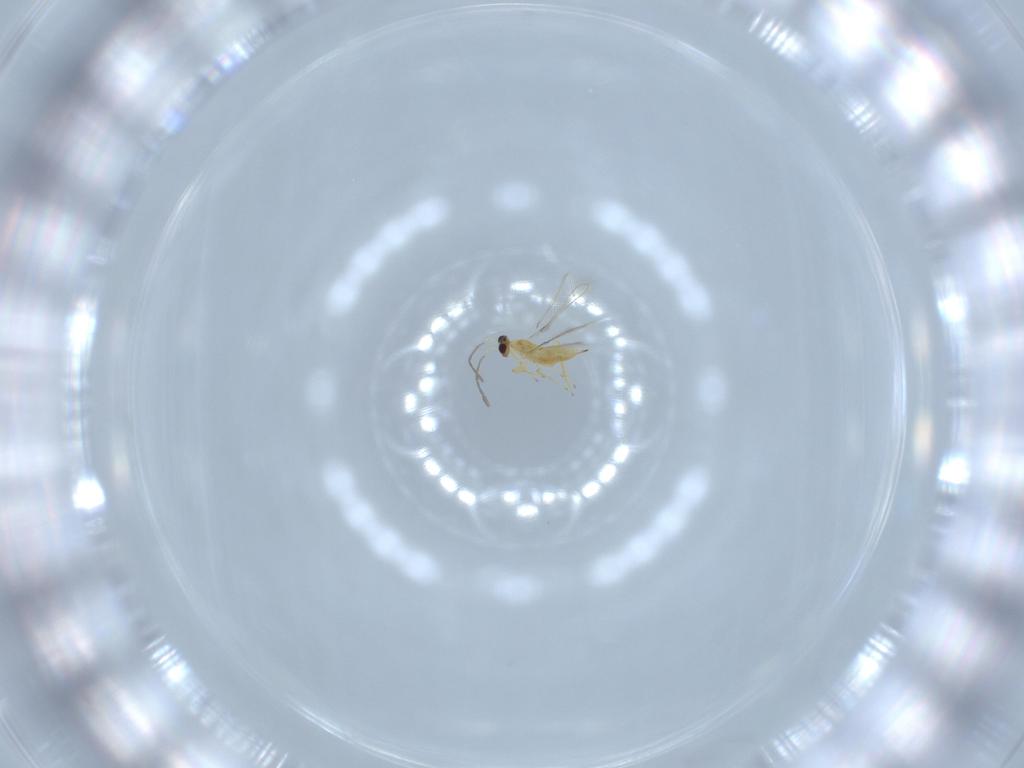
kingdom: Animalia
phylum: Arthropoda
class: Insecta
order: Hymenoptera
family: Mymaridae
